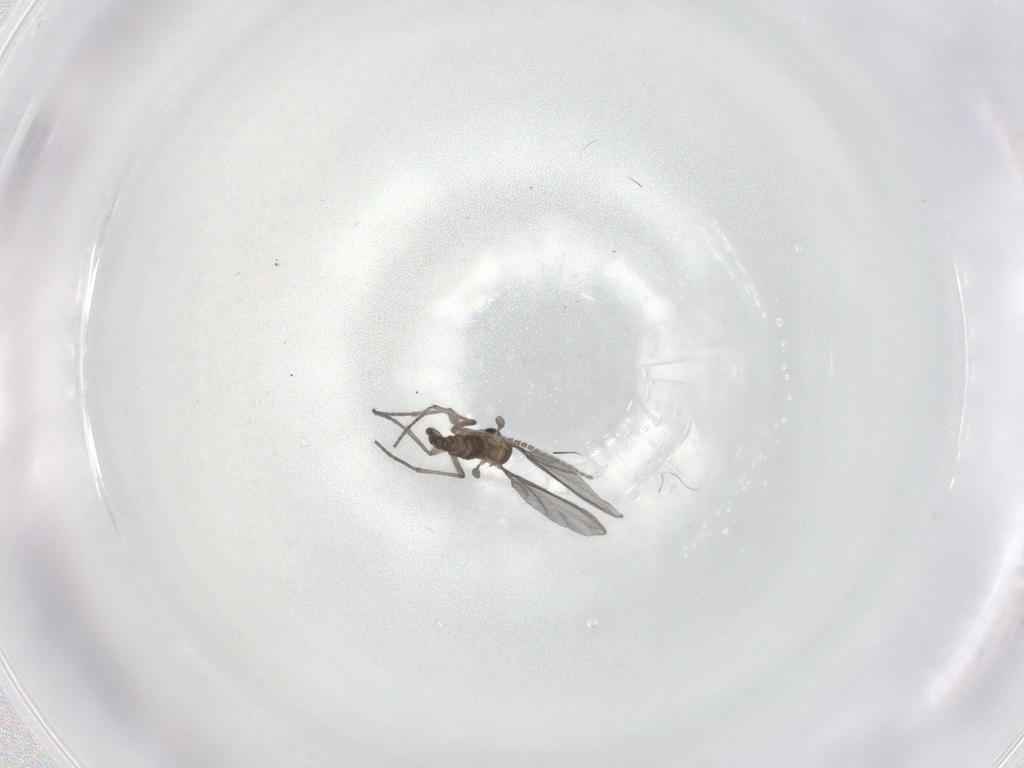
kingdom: Animalia
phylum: Arthropoda
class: Insecta
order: Diptera
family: Sciaridae
